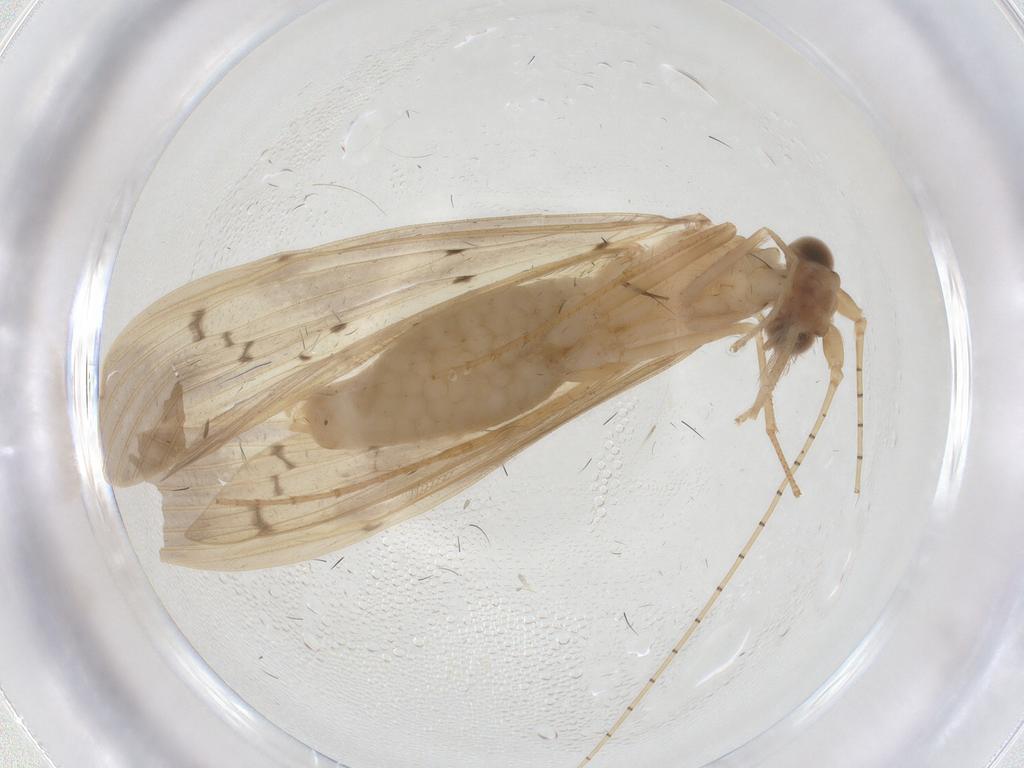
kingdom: Animalia
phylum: Arthropoda
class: Insecta
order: Trichoptera
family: Leptoceridae
